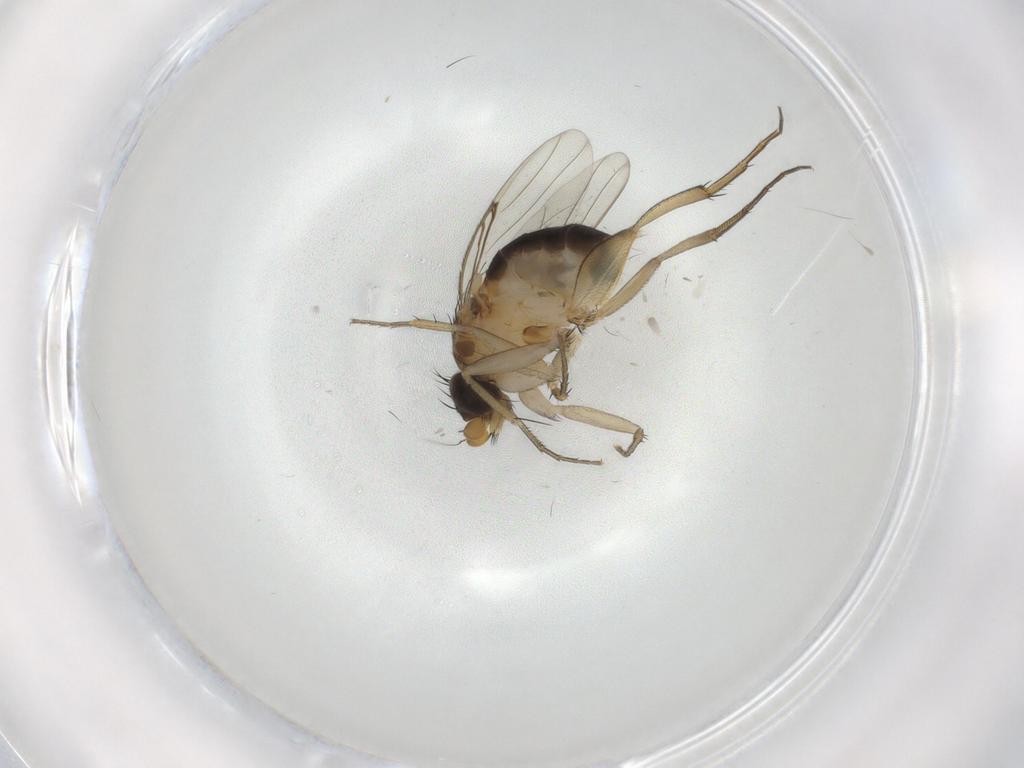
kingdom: Animalia
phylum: Arthropoda
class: Insecta
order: Diptera
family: Phoridae
